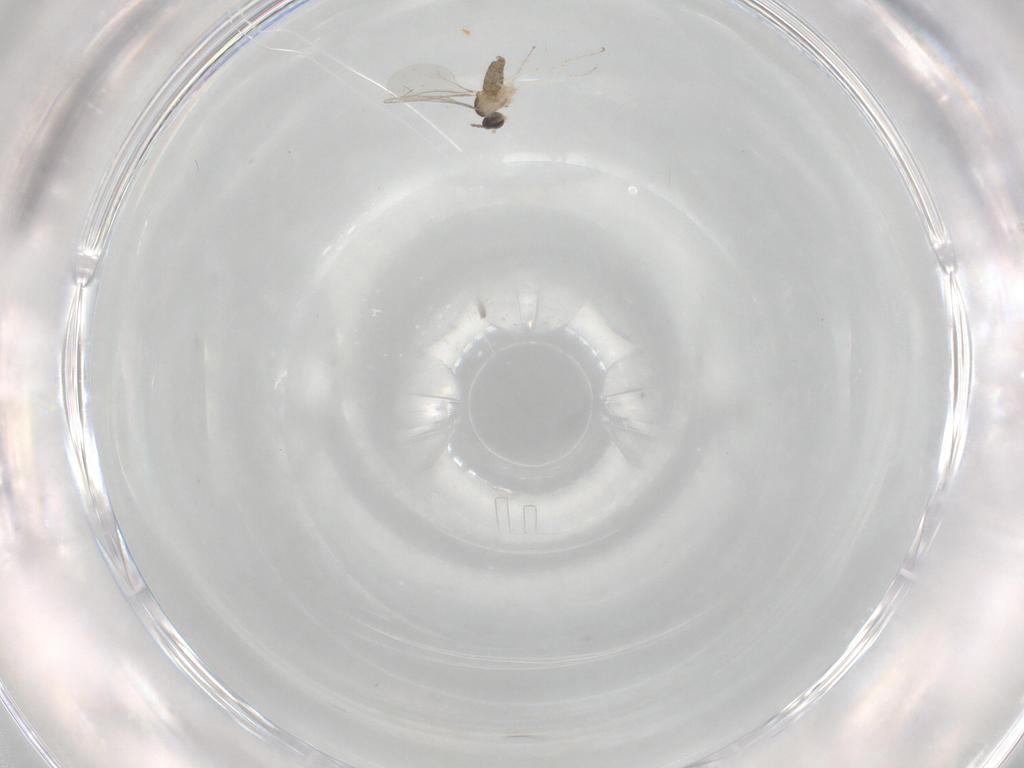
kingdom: Animalia
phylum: Arthropoda
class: Insecta
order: Diptera
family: Cecidomyiidae
